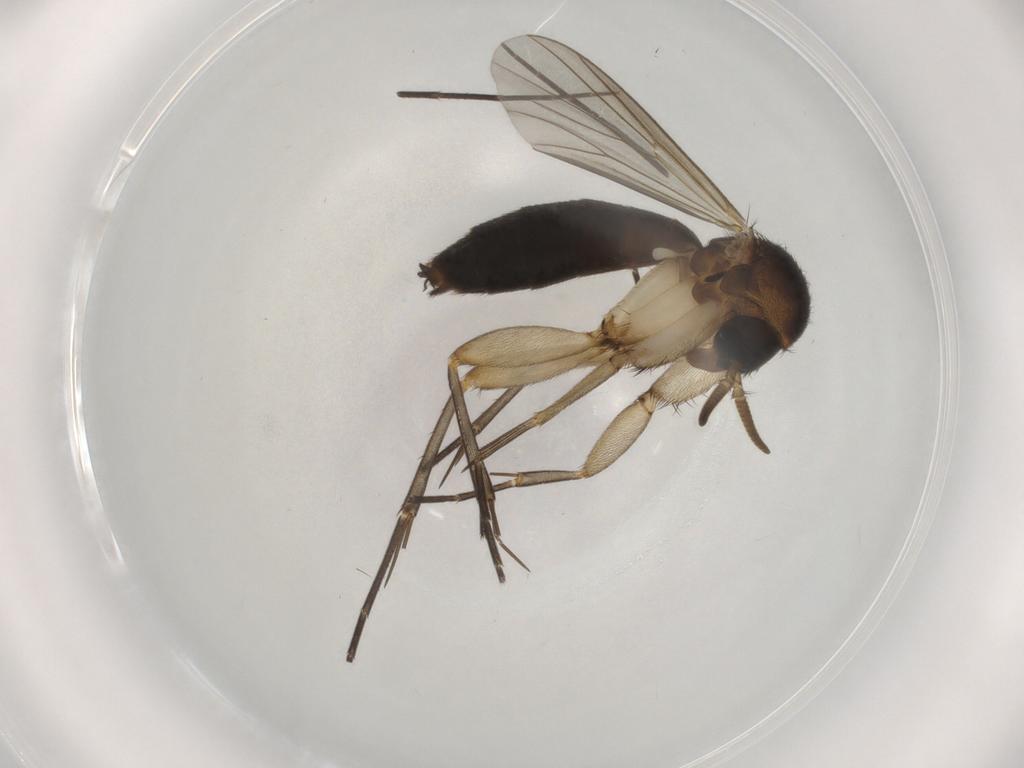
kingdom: Animalia
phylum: Arthropoda
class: Insecta
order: Diptera
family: Mycetophilidae
